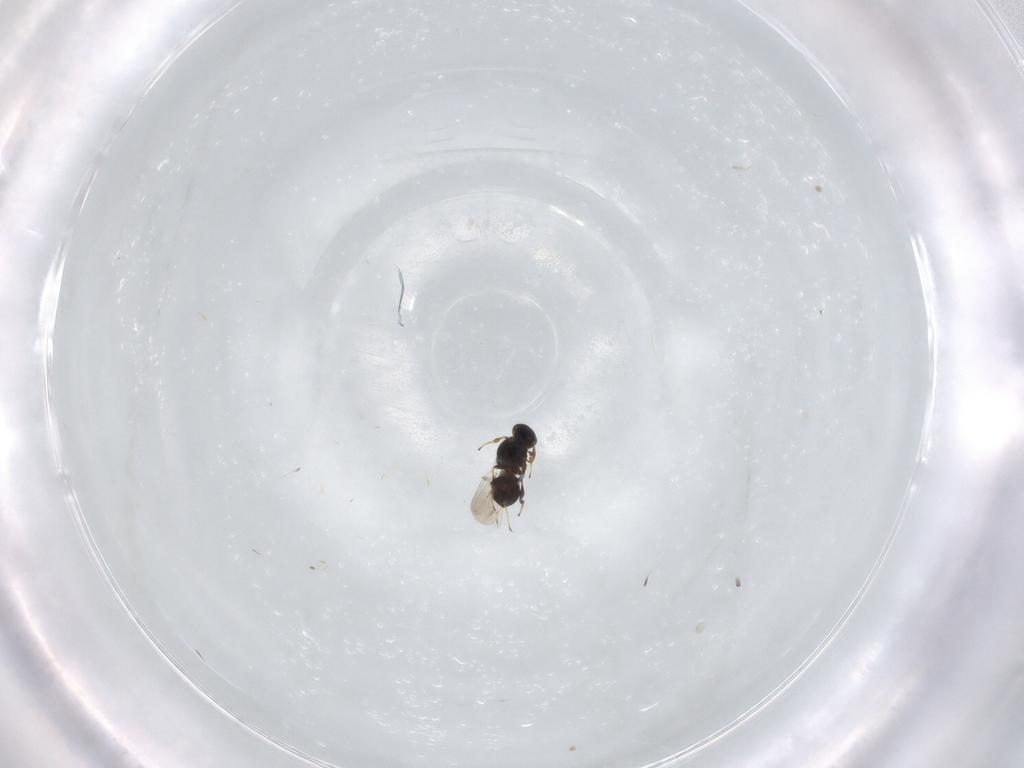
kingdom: Animalia
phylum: Arthropoda
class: Insecta
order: Hymenoptera
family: Platygastridae
